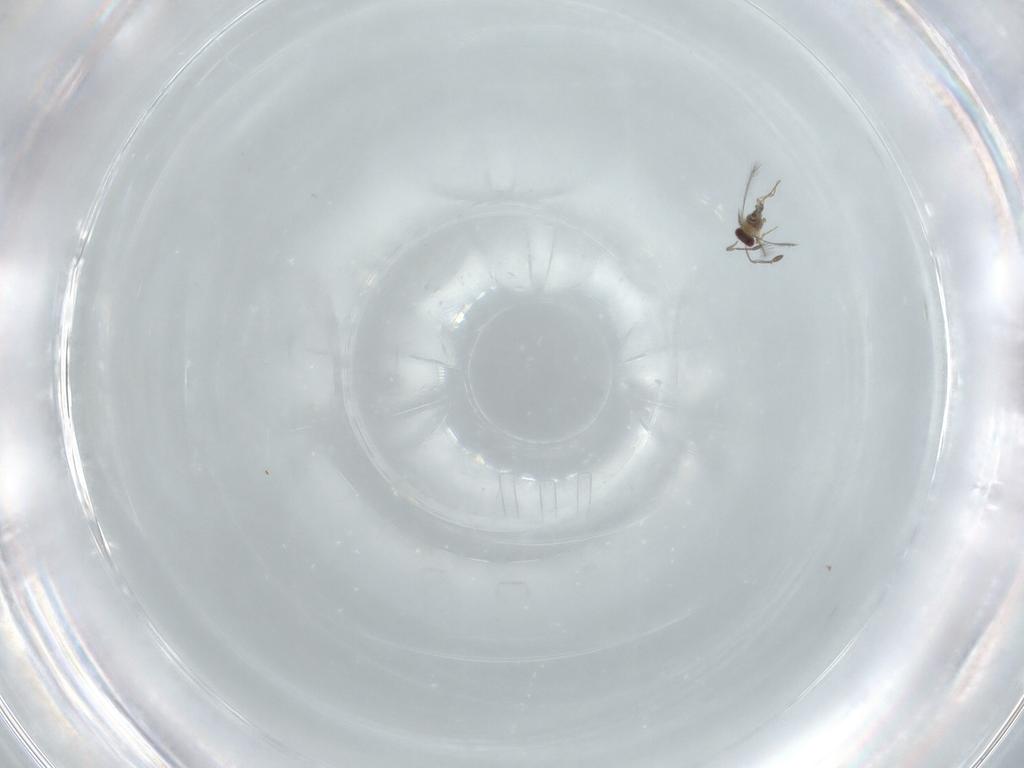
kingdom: Animalia
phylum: Arthropoda
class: Insecta
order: Hymenoptera
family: Mymaridae
